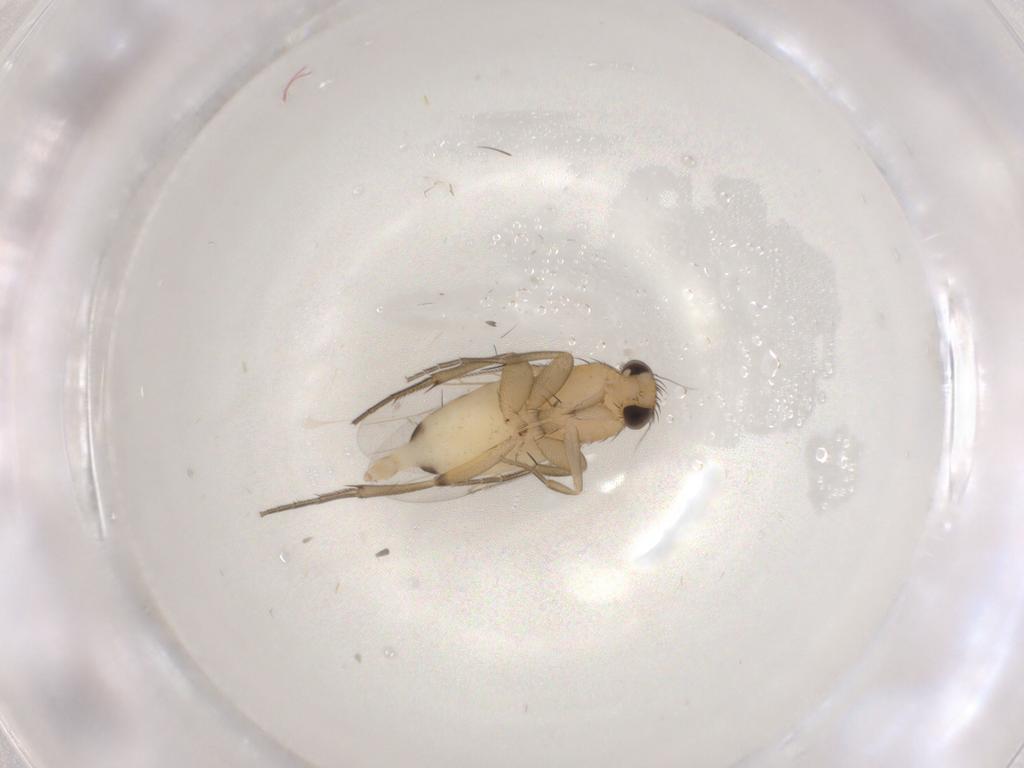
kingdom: Animalia
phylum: Arthropoda
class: Insecta
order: Diptera
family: Phoridae
